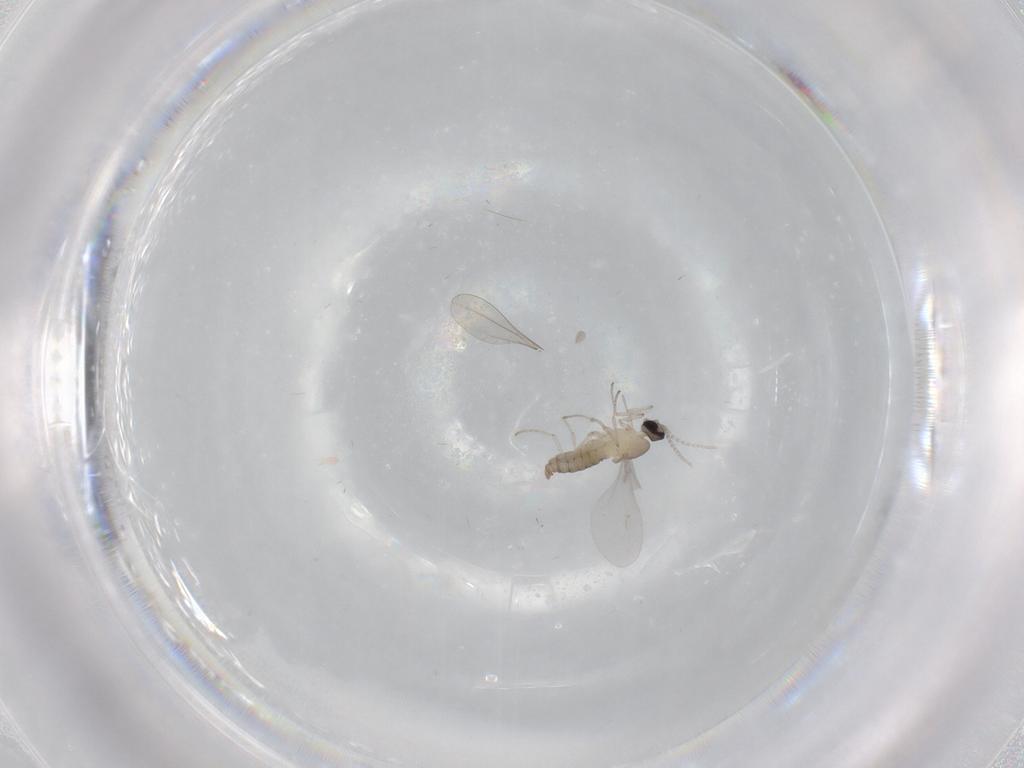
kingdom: Animalia
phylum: Arthropoda
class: Insecta
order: Diptera
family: Cecidomyiidae
